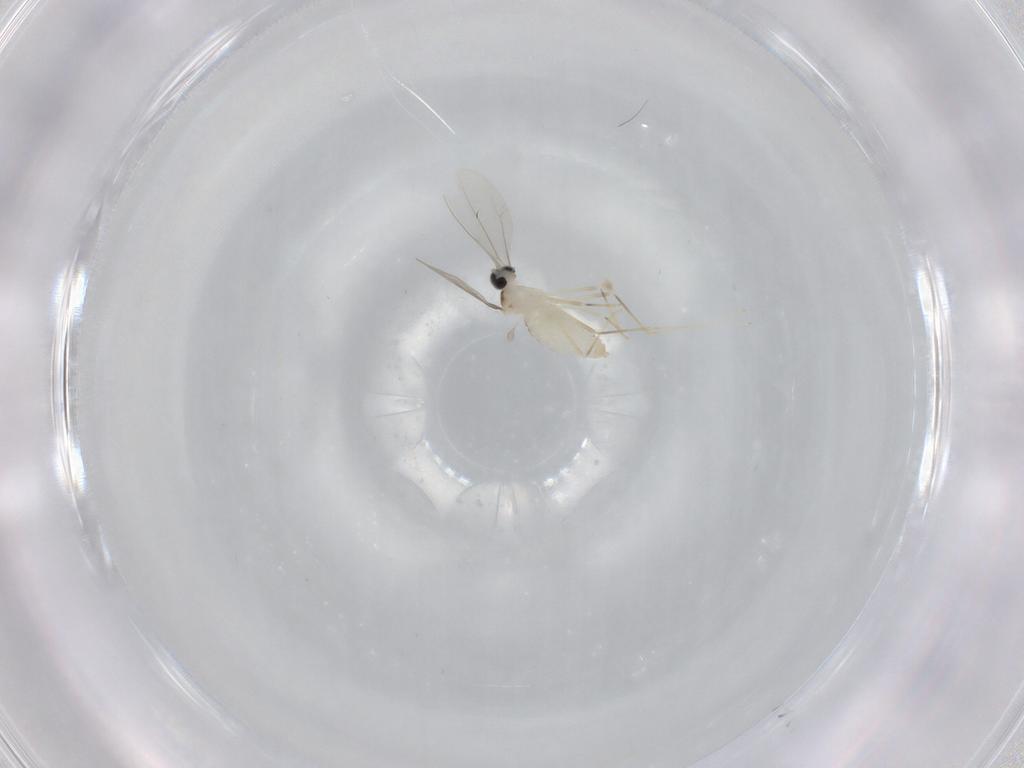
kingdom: Animalia
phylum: Arthropoda
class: Insecta
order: Diptera
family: Cecidomyiidae
